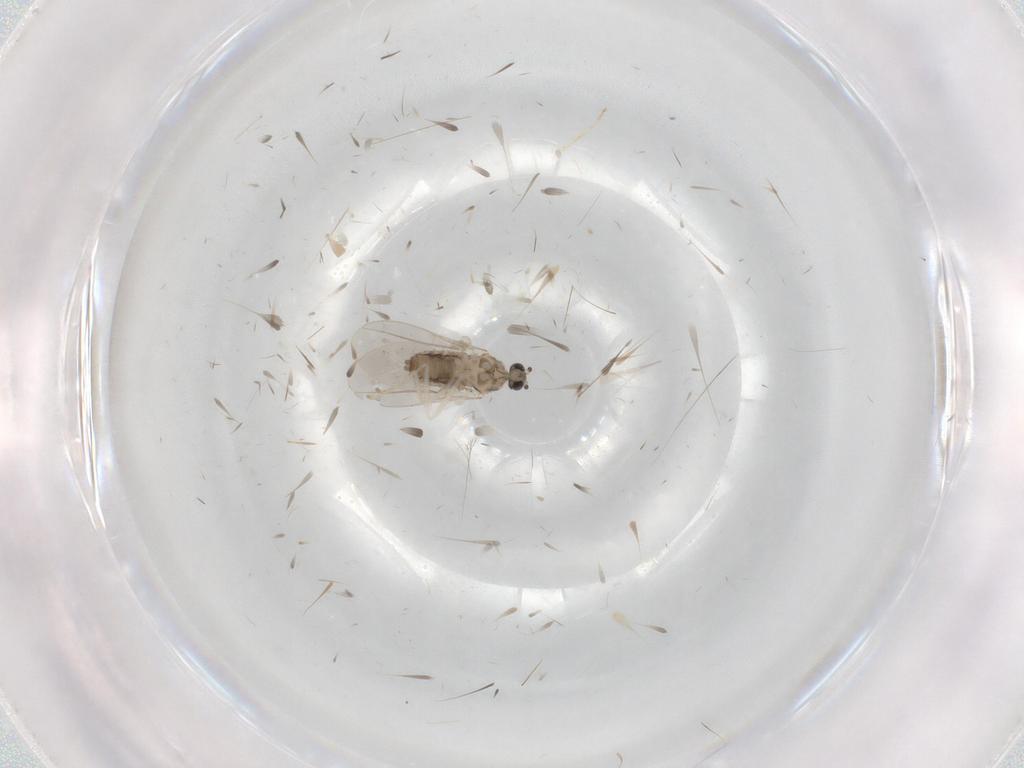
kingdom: Animalia
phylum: Arthropoda
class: Insecta
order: Diptera
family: Cecidomyiidae
